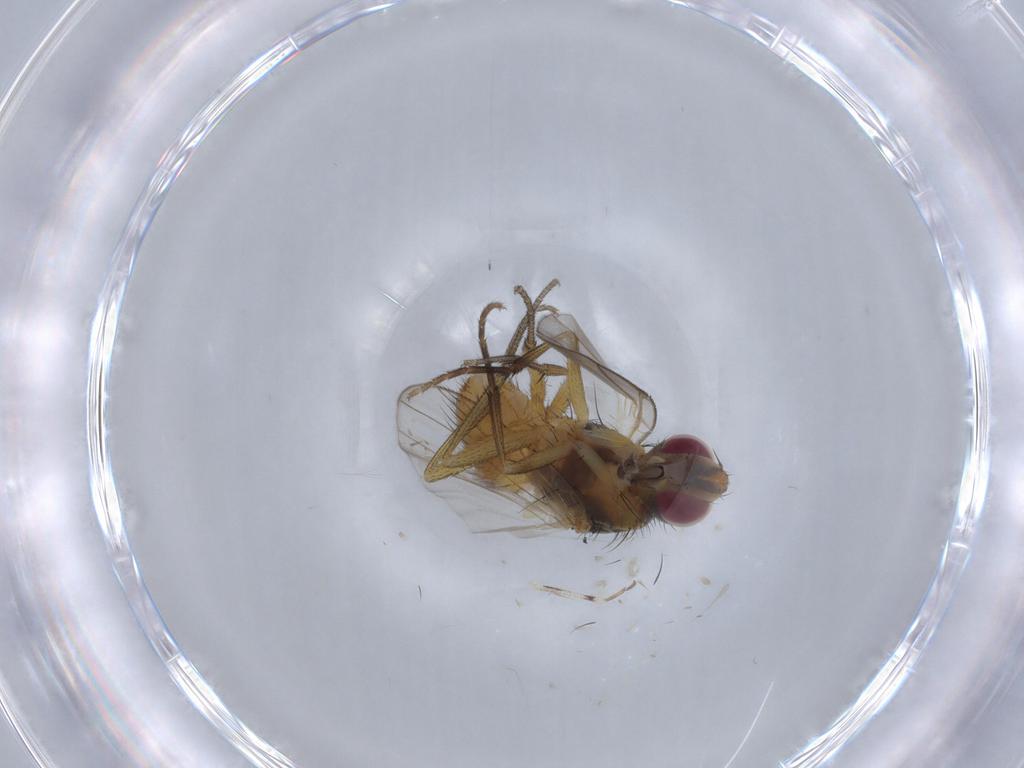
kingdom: Animalia
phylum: Arthropoda
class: Insecta
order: Diptera
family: Muscidae
